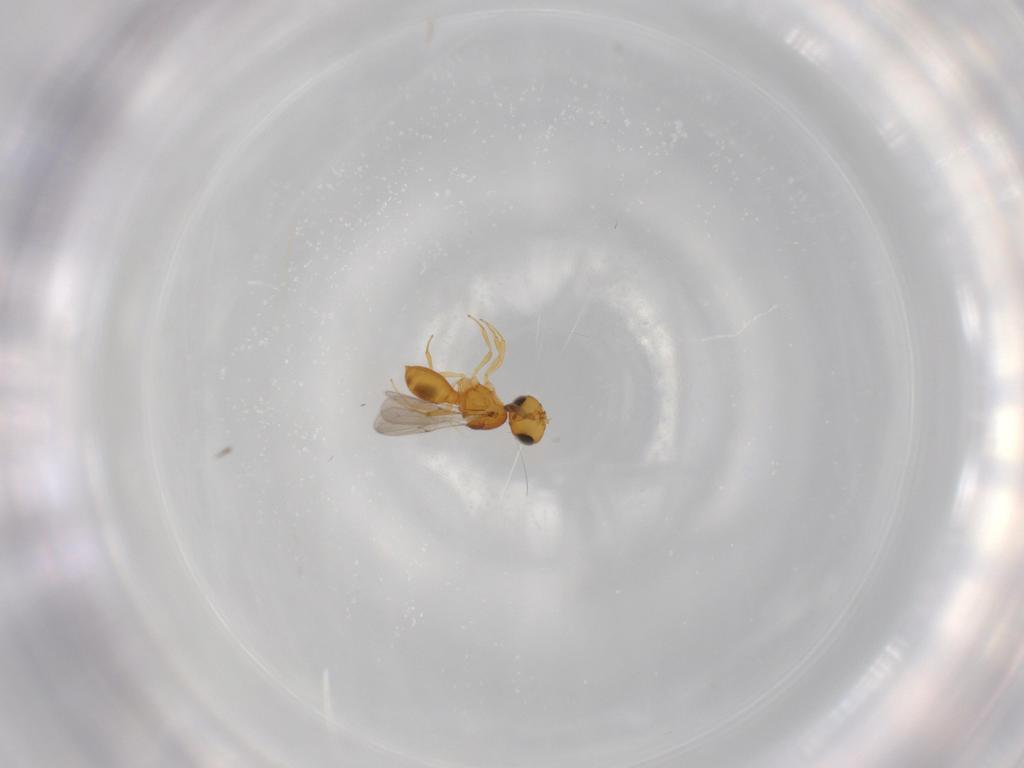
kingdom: Animalia
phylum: Arthropoda
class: Insecta
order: Hymenoptera
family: Scelionidae
